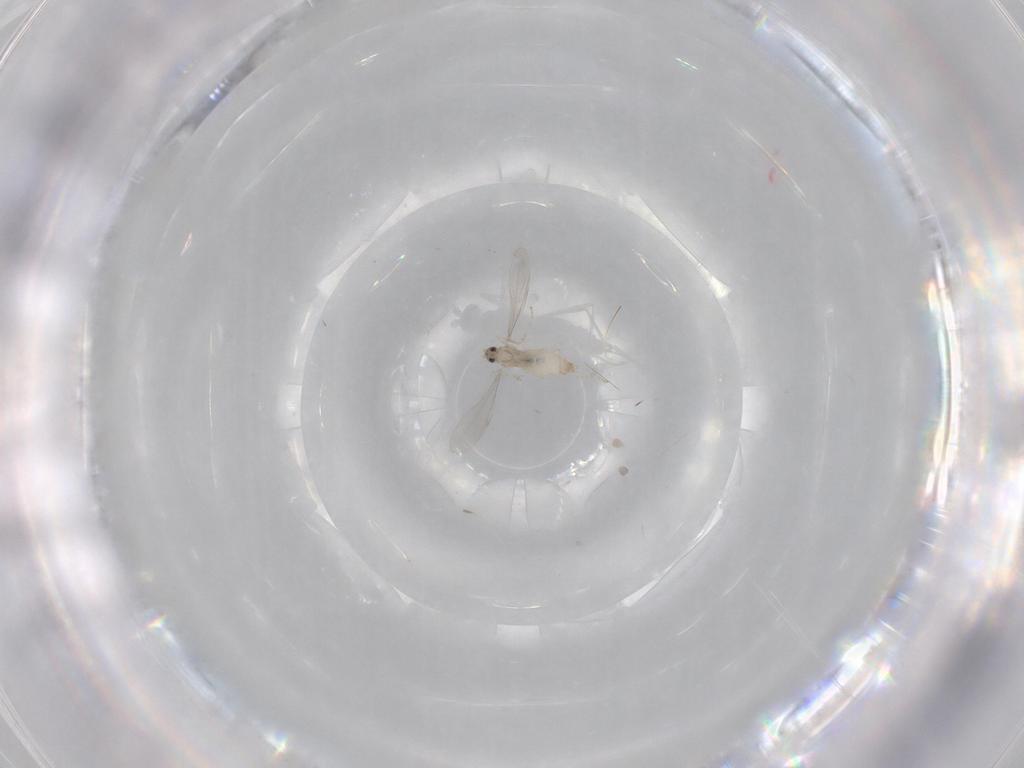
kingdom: Animalia
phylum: Arthropoda
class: Insecta
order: Diptera
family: Cecidomyiidae
